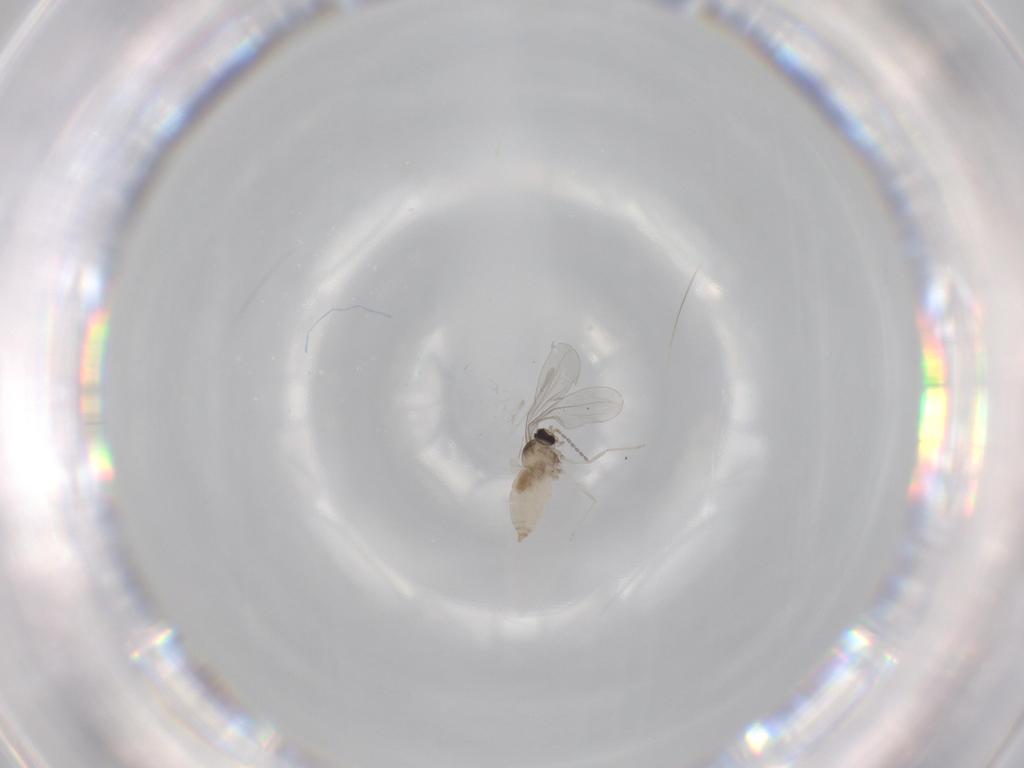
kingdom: Animalia
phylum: Arthropoda
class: Insecta
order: Diptera
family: Cecidomyiidae
